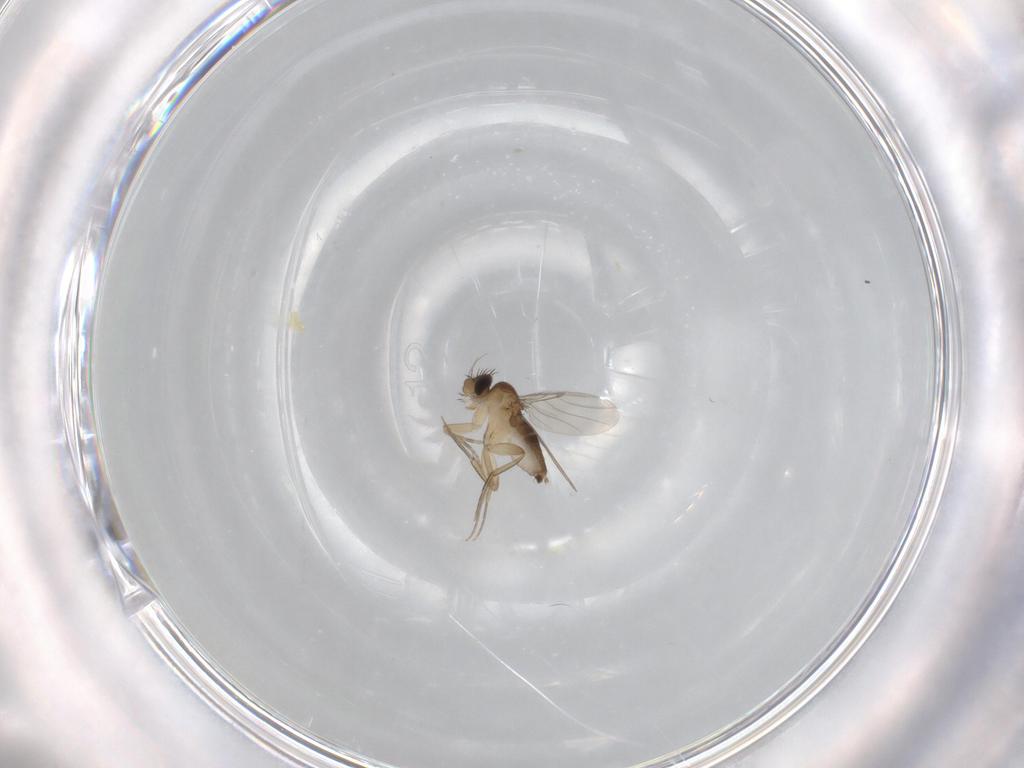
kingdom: Animalia
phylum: Arthropoda
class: Insecta
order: Diptera
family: Phoridae
